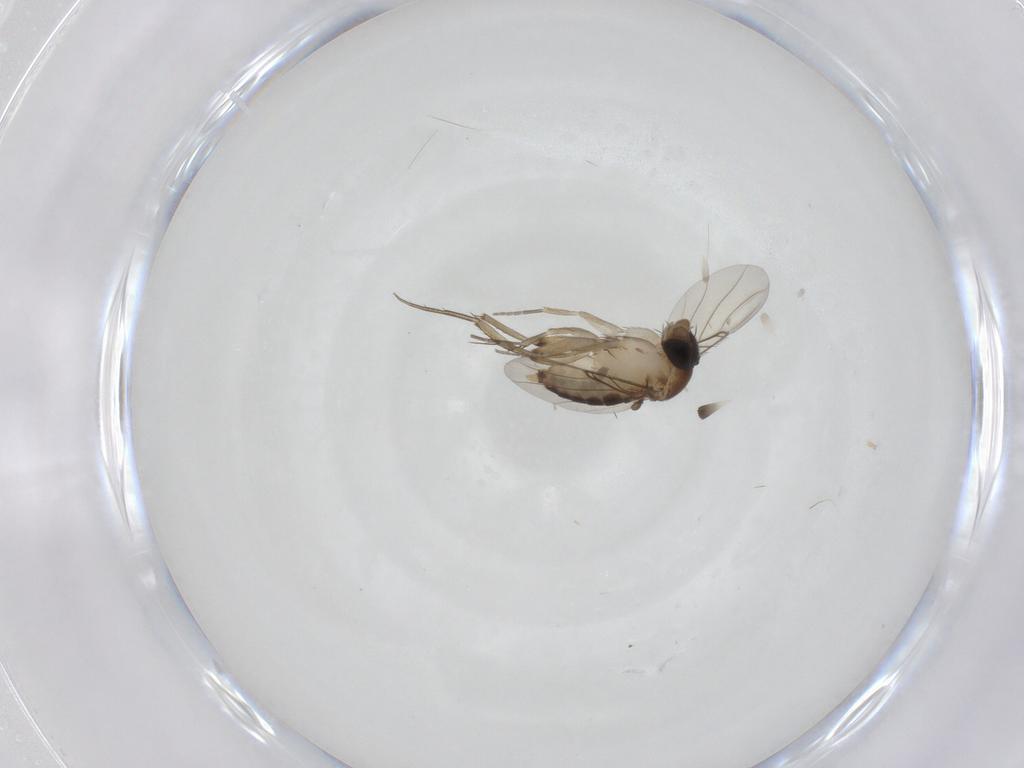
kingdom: Animalia
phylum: Arthropoda
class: Insecta
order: Diptera
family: Phoridae
